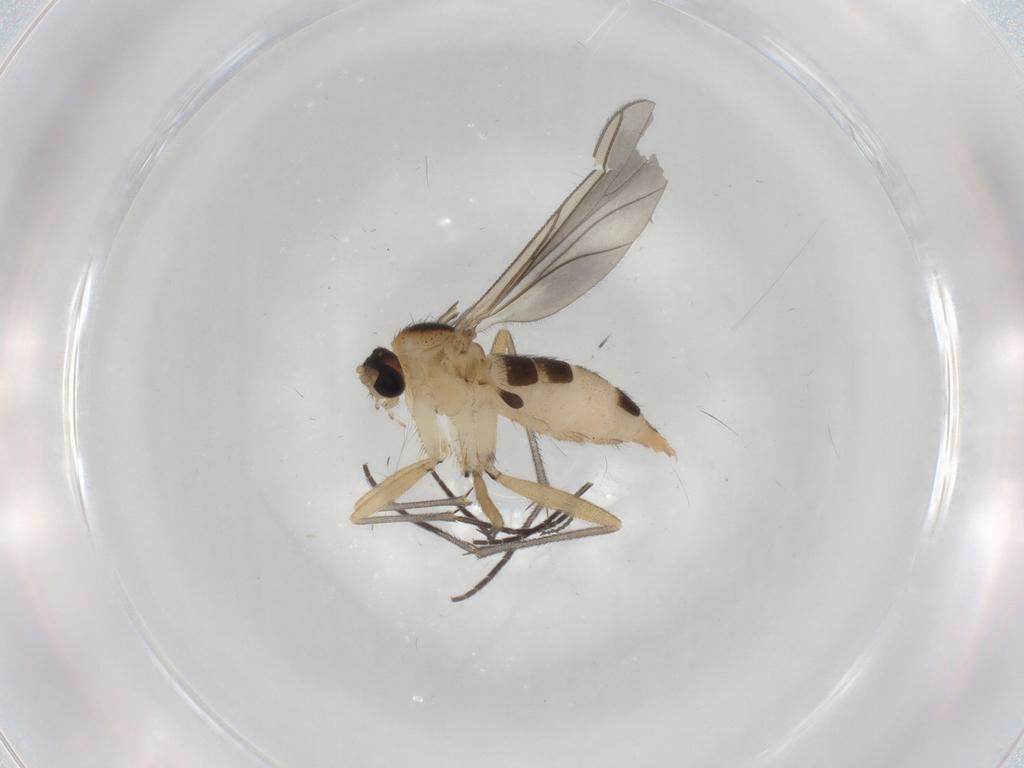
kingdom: Animalia
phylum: Arthropoda
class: Insecta
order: Diptera
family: Sciaridae
